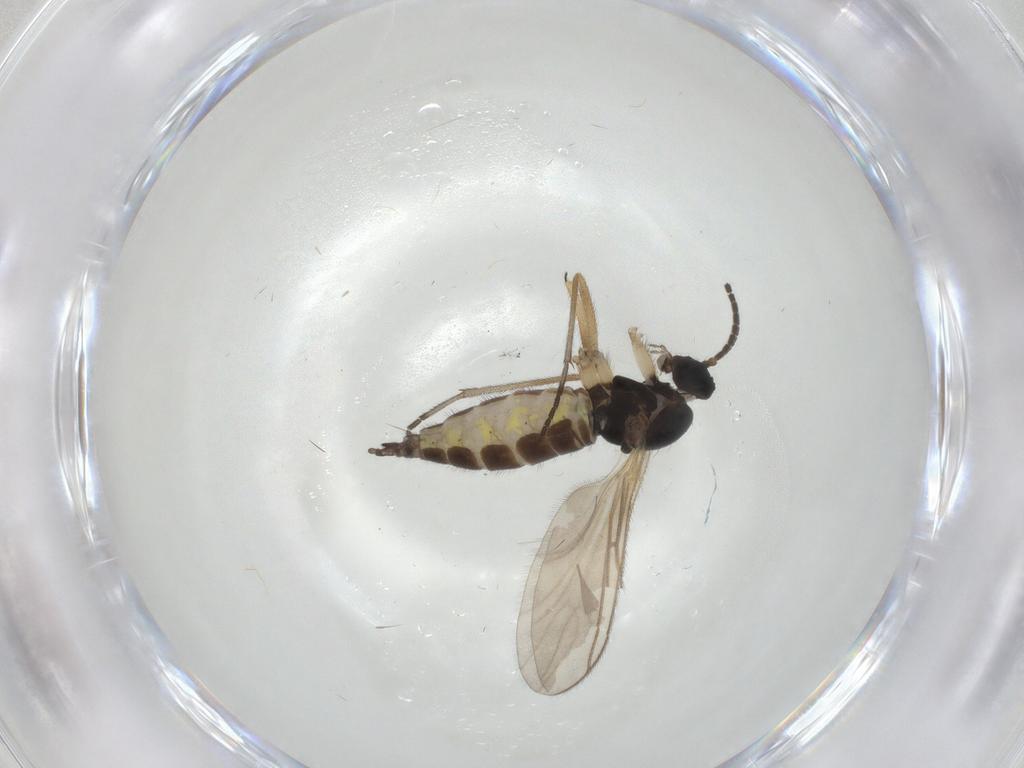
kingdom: Animalia
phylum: Arthropoda
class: Insecta
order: Diptera
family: Sciaridae
